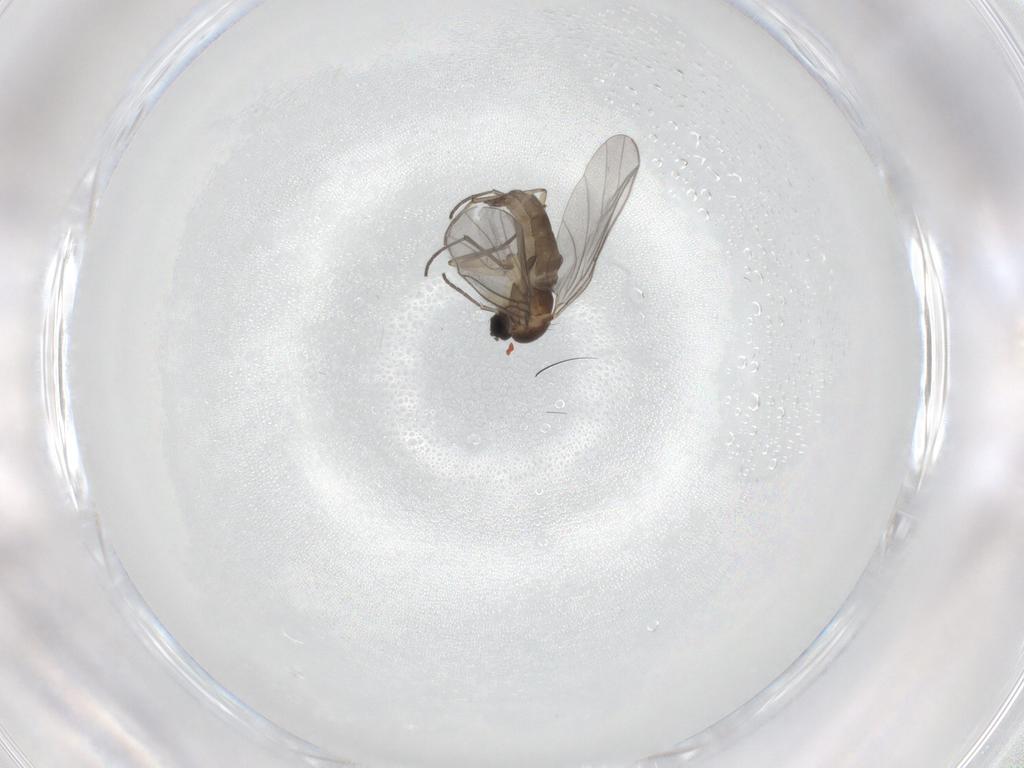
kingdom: Animalia
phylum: Arthropoda
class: Insecta
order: Diptera
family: Sciaridae
